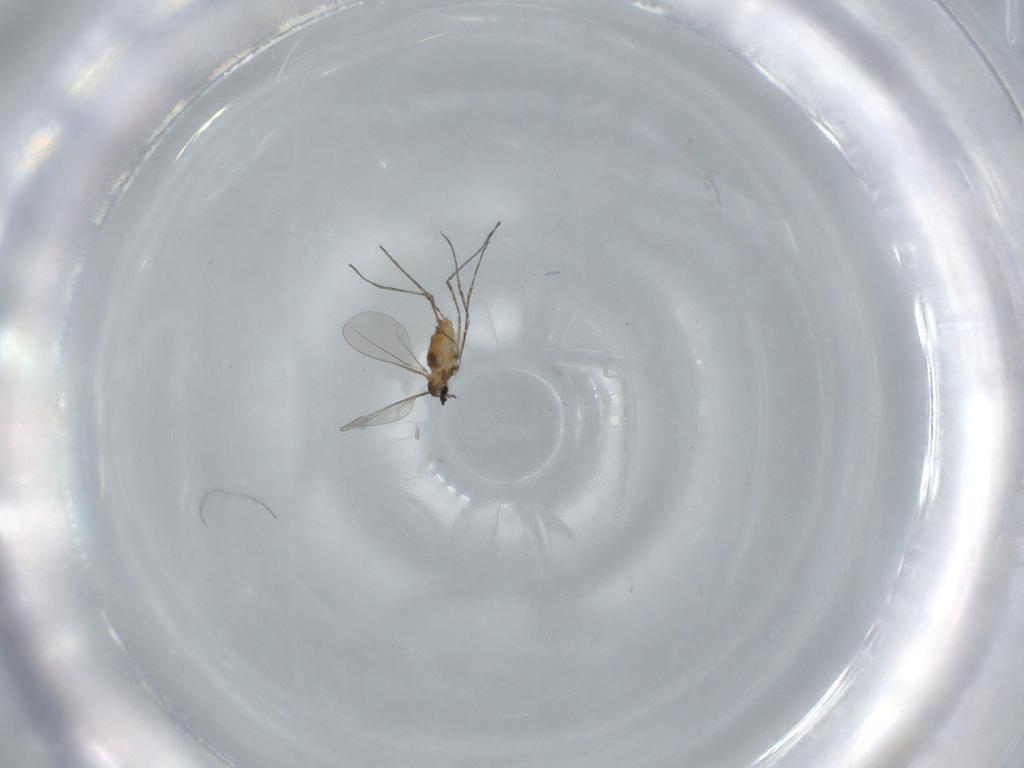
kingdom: Animalia
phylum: Arthropoda
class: Insecta
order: Diptera
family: Cecidomyiidae
